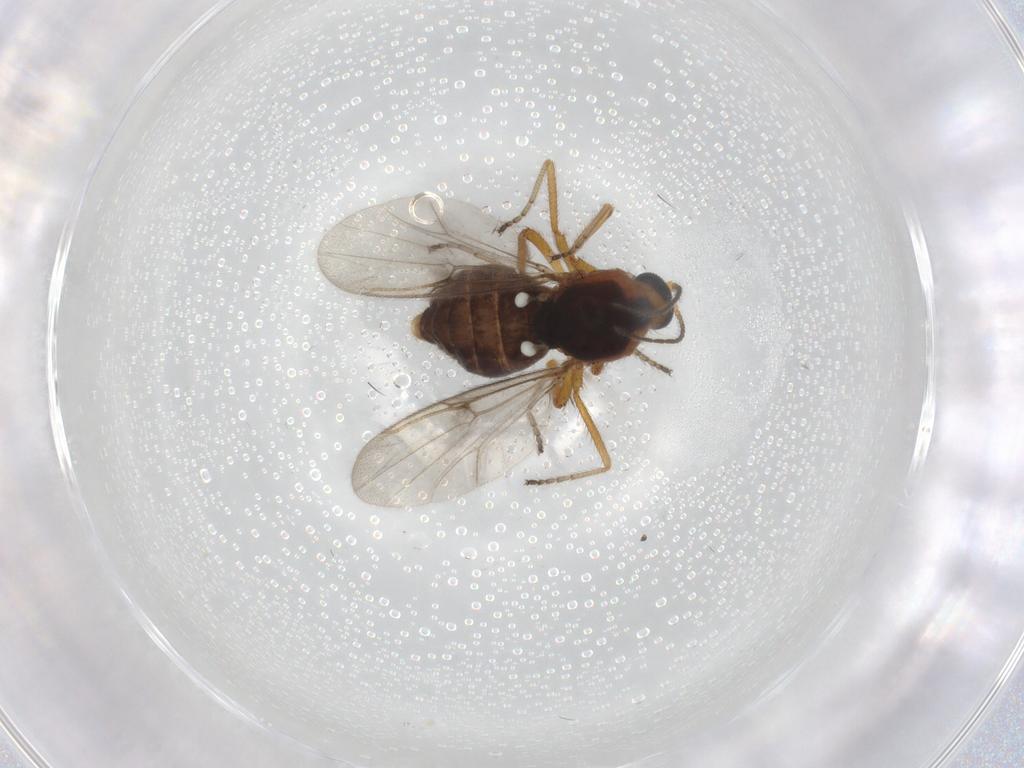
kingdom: Animalia
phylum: Arthropoda
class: Insecta
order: Diptera
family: Ceratopogonidae
